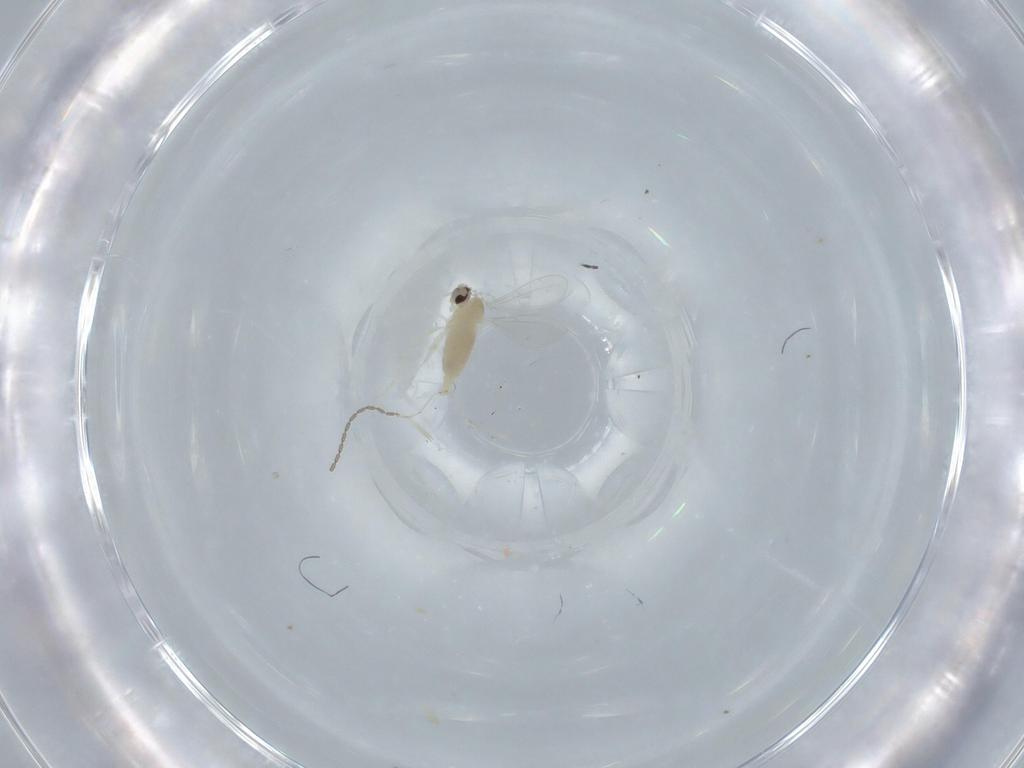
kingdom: Animalia
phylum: Arthropoda
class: Insecta
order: Diptera
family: Cecidomyiidae
